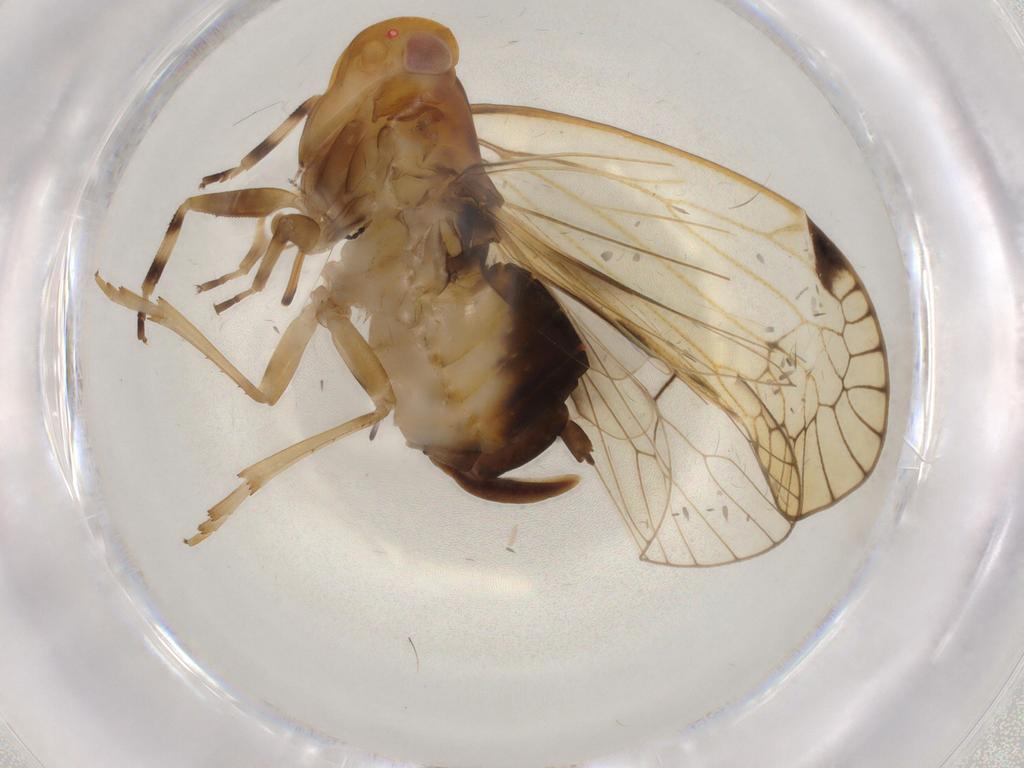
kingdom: Animalia
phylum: Arthropoda
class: Insecta
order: Hemiptera
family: Cixiidae
